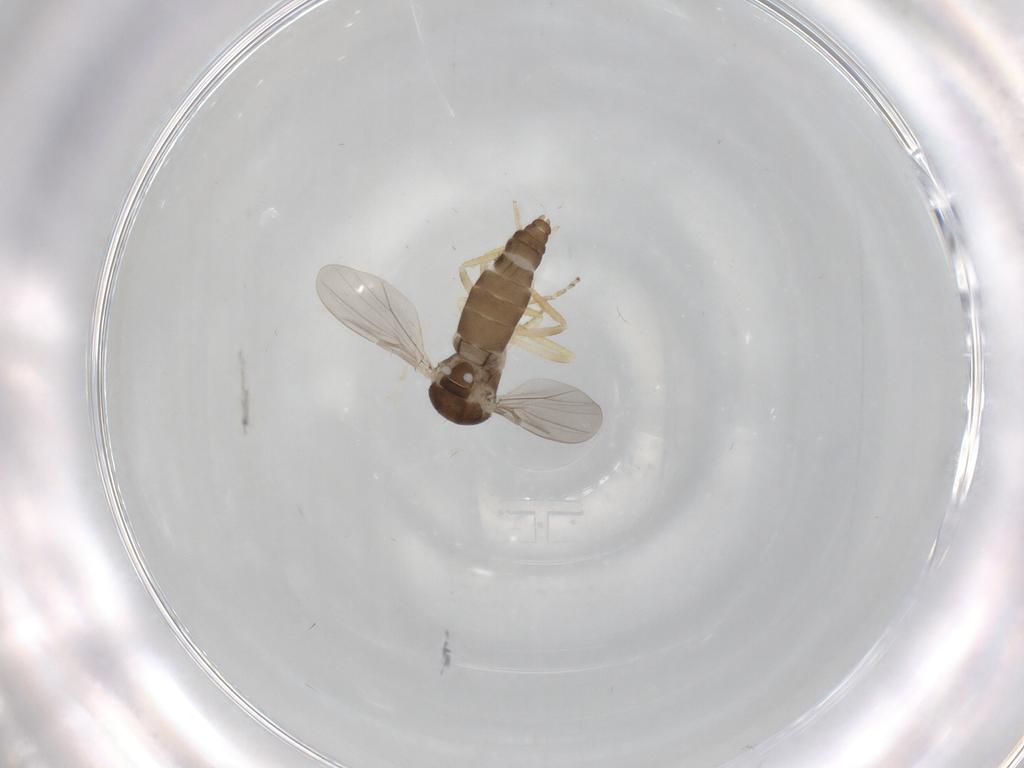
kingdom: Animalia
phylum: Arthropoda
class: Insecta
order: Diptera
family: Ceratopogonidae
